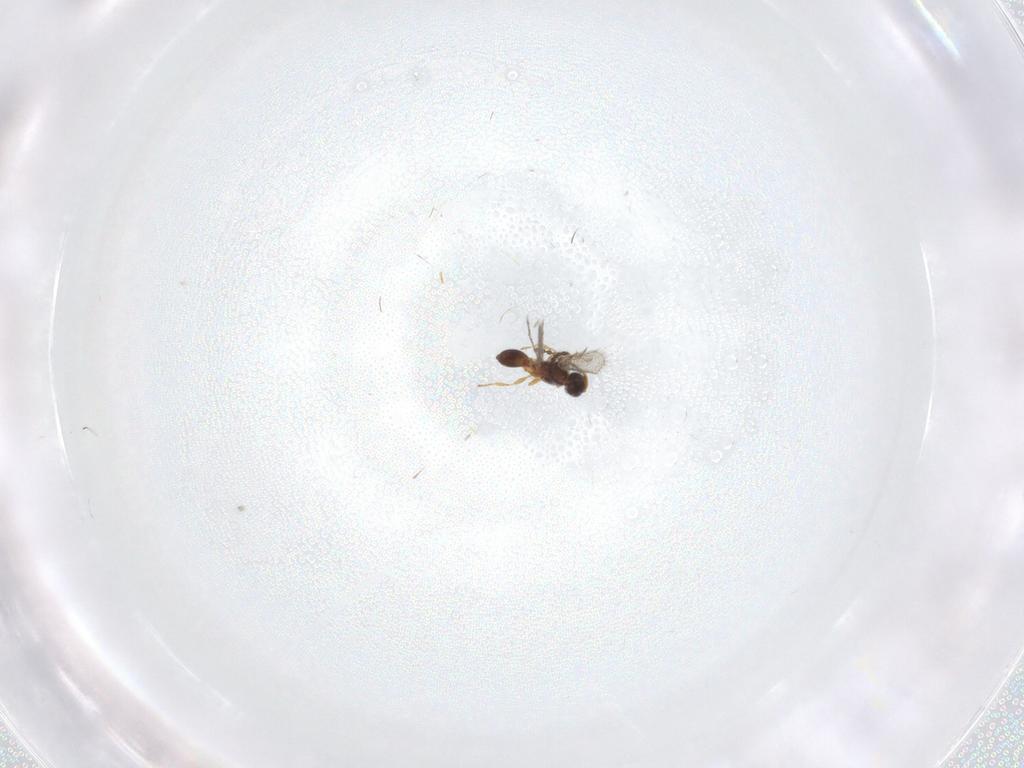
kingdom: Animalia
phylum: Arthropoda
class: Insecta
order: Hymenoptera
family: Diapriidae
